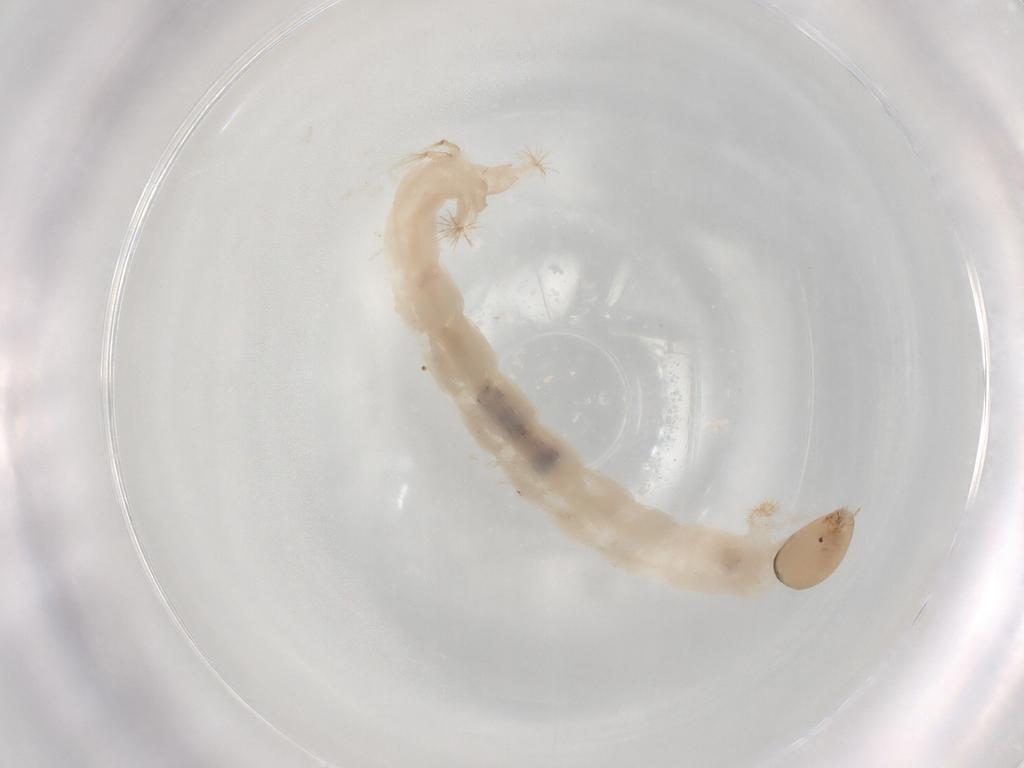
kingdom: Animalia
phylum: Arthropoda
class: Insecta
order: Diptera
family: Chironomidae
